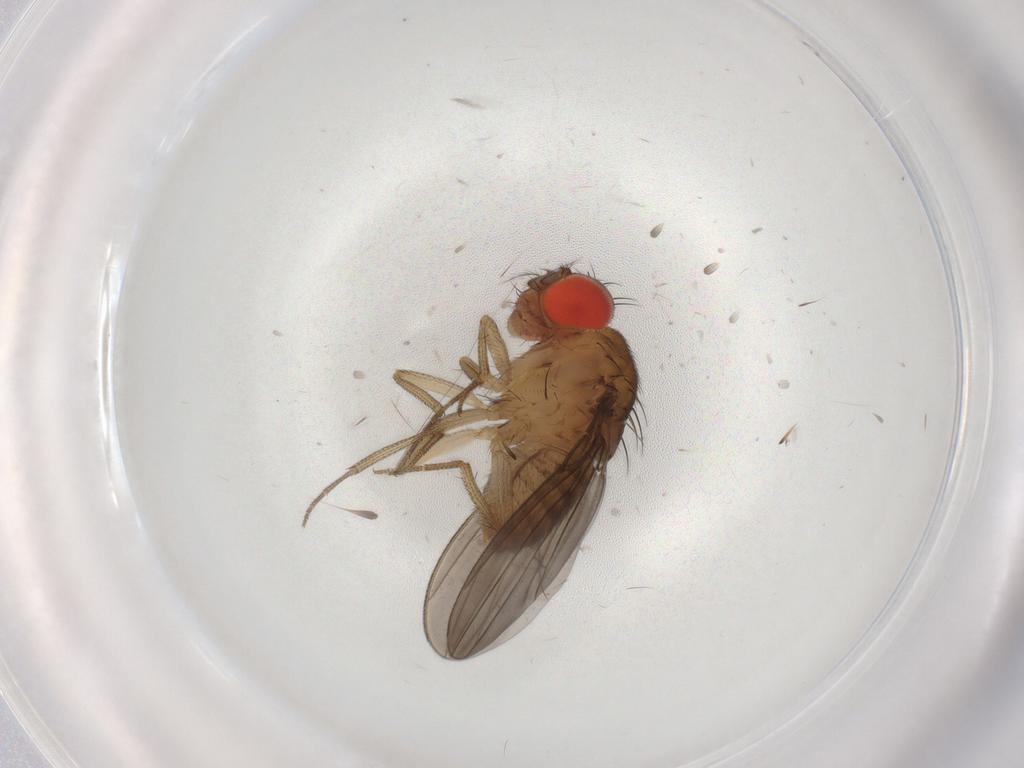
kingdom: Animalia
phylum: Arthropoda
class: Insecta
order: Diptera
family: Drosophilidae
